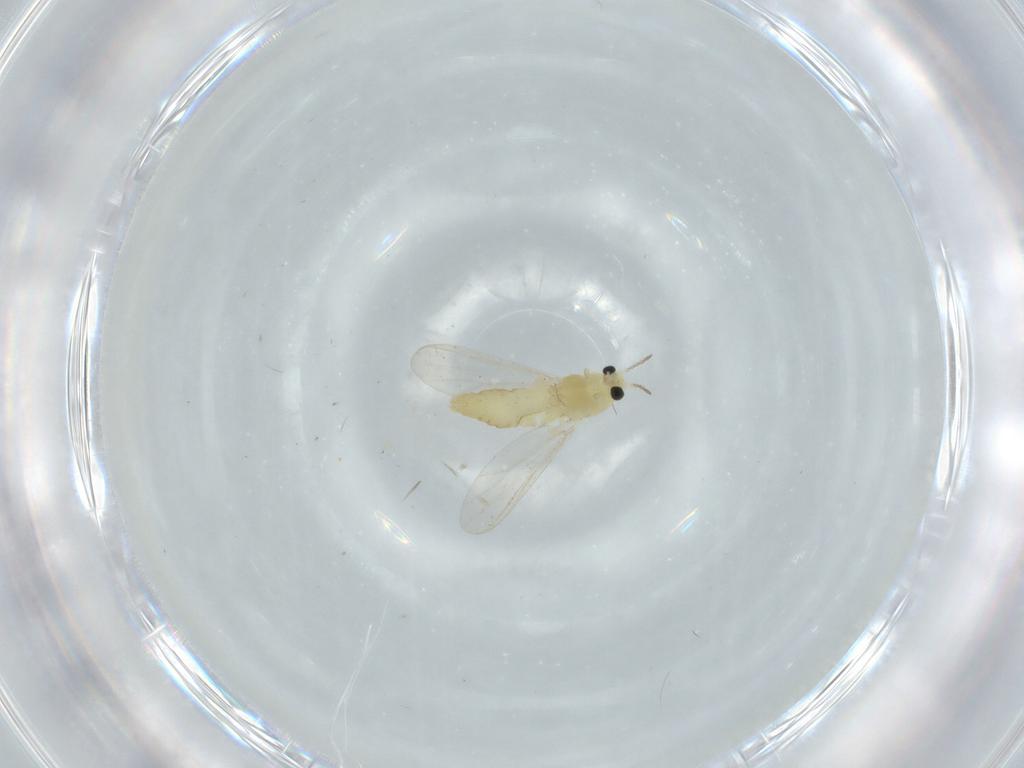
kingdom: Animalia
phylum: Arthropoda
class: Insecta
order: Diptera
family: Chironomidae
